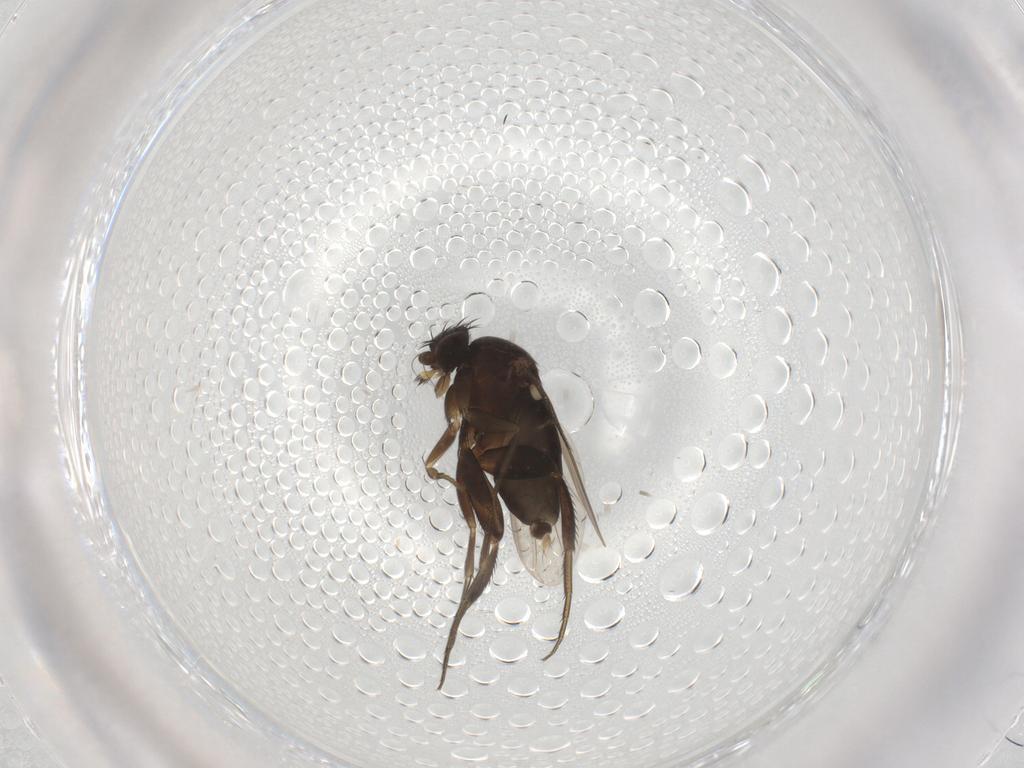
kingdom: Animalia
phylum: Arthropoda
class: Insecta
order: Diptera
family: Phoridae
